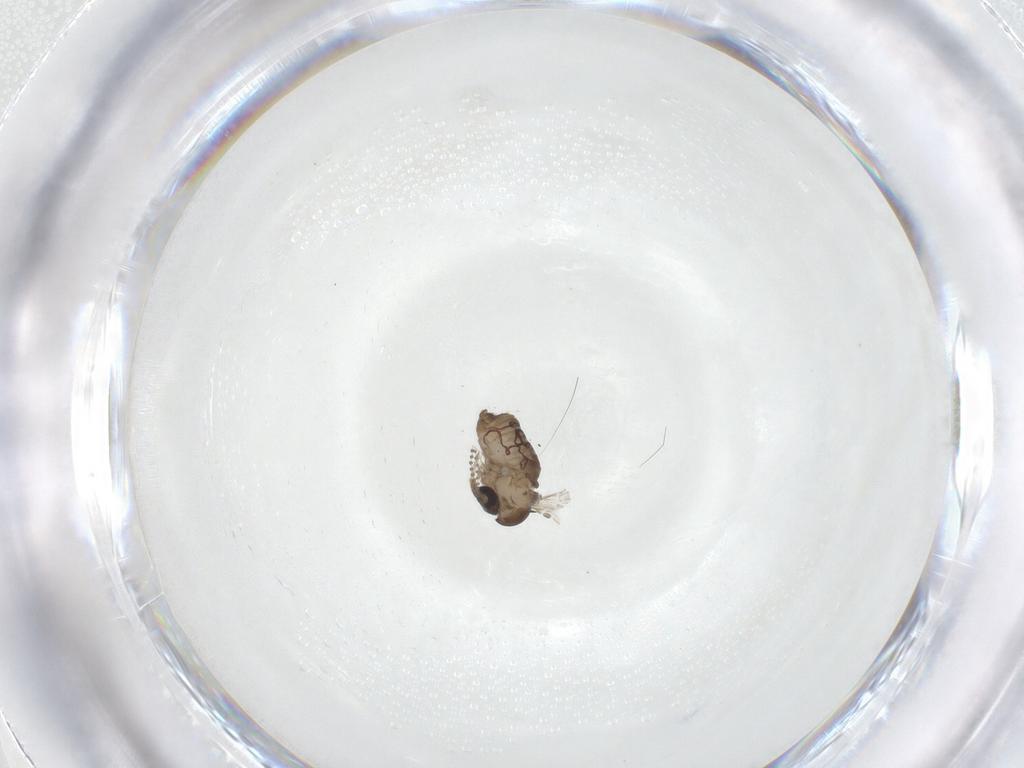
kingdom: Animalia
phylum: Arthropoda
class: Insecta
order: Diptera
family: Psychodidae
